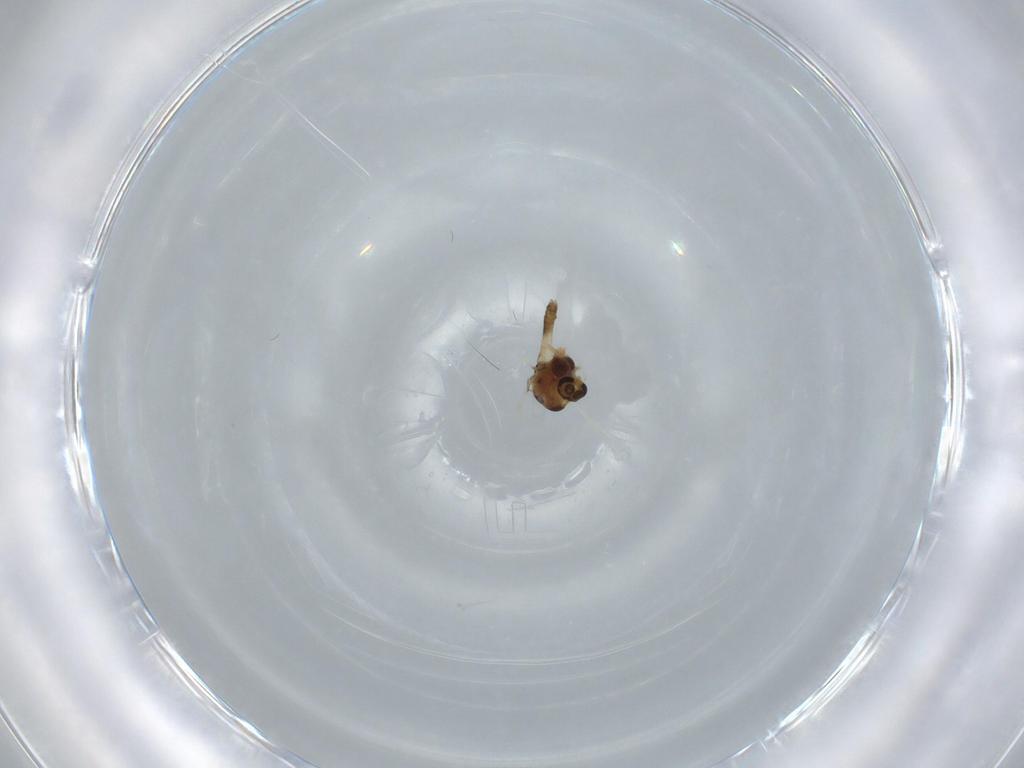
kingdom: Animalia
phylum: Arthropoda
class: Insecta
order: Diptera
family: Chironomidae
